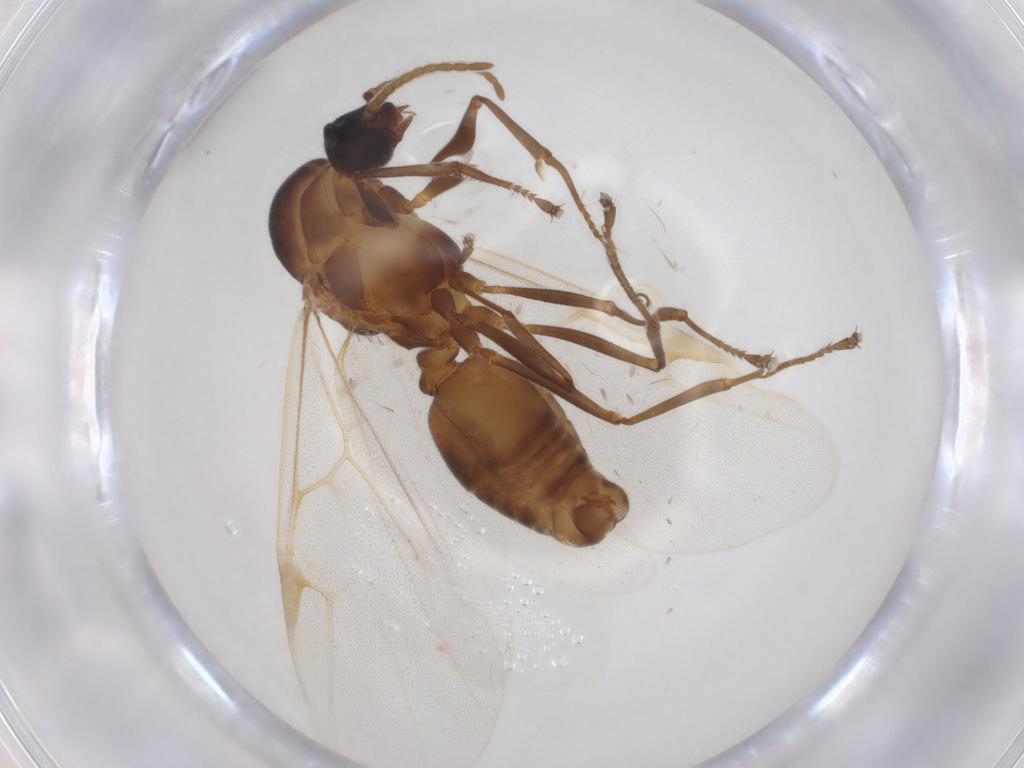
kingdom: Animalia
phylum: Arthropoda
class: Insecta
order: Hymenoptera
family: Formicidae
